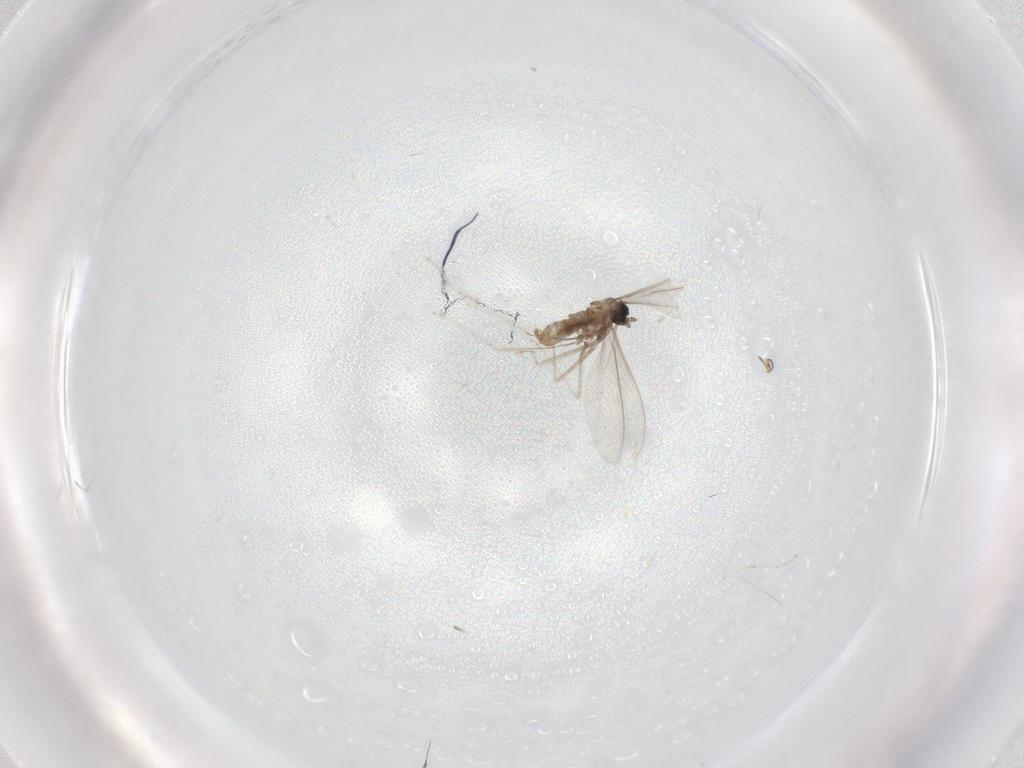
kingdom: Animalia
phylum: Arthropoda
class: Insecta
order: Diptera
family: Cecidomyiidae
